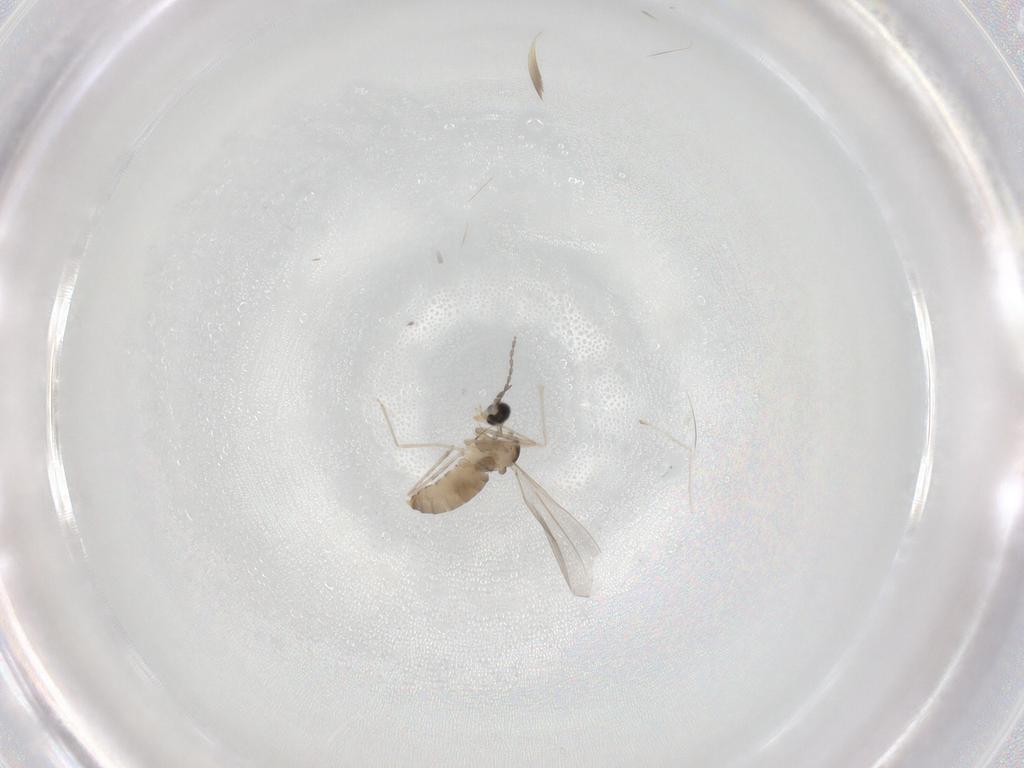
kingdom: Animalia
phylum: Arthropoda
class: Insecta
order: Diptera
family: Cecidomyiidae
